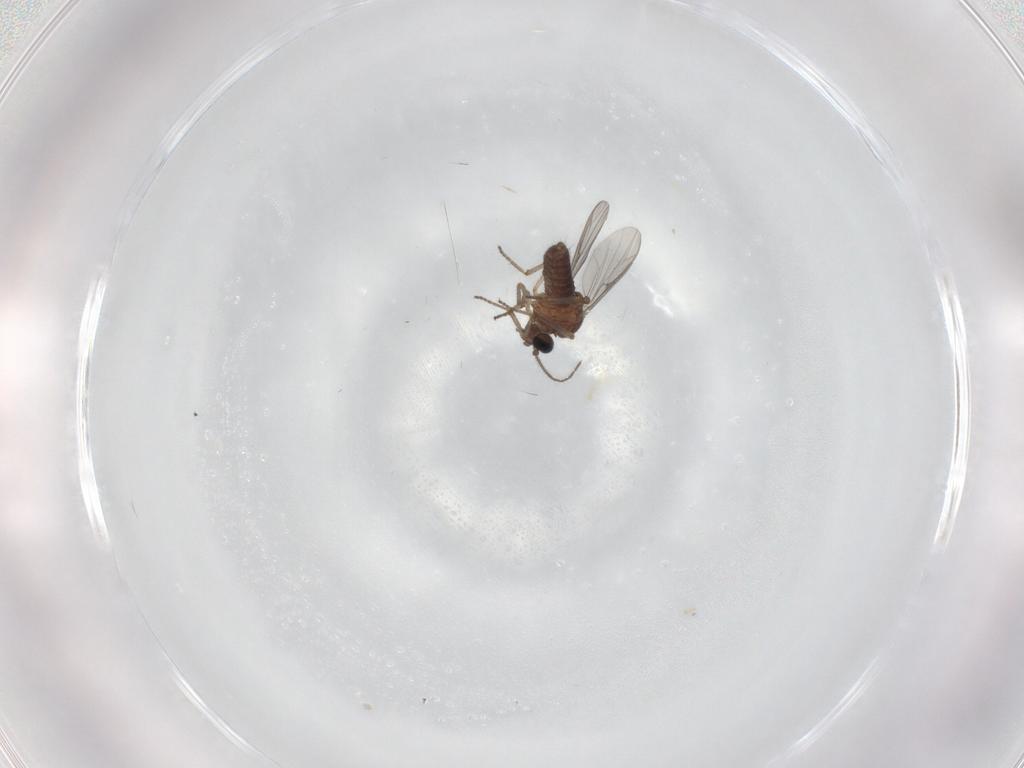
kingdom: Animalia
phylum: Arthropoda
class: Insecta
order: Diptera
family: Ceratopogonidae
